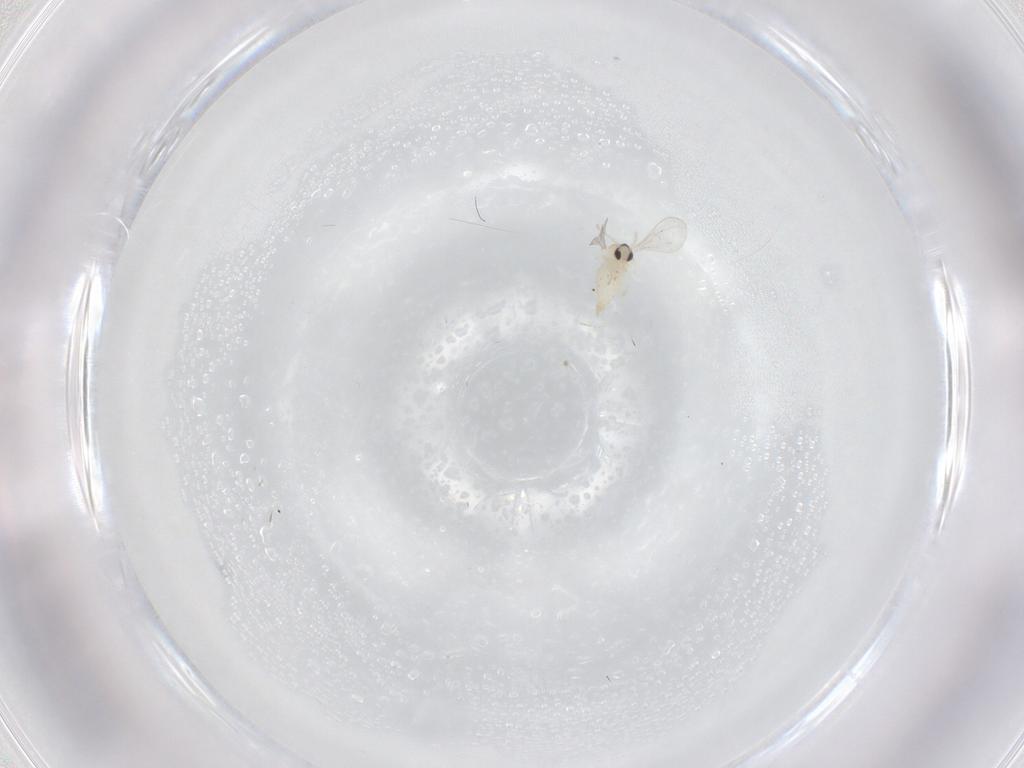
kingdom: Animalia
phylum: Arthropoda
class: Insecta
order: Diptera
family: Cecidomyiidae
